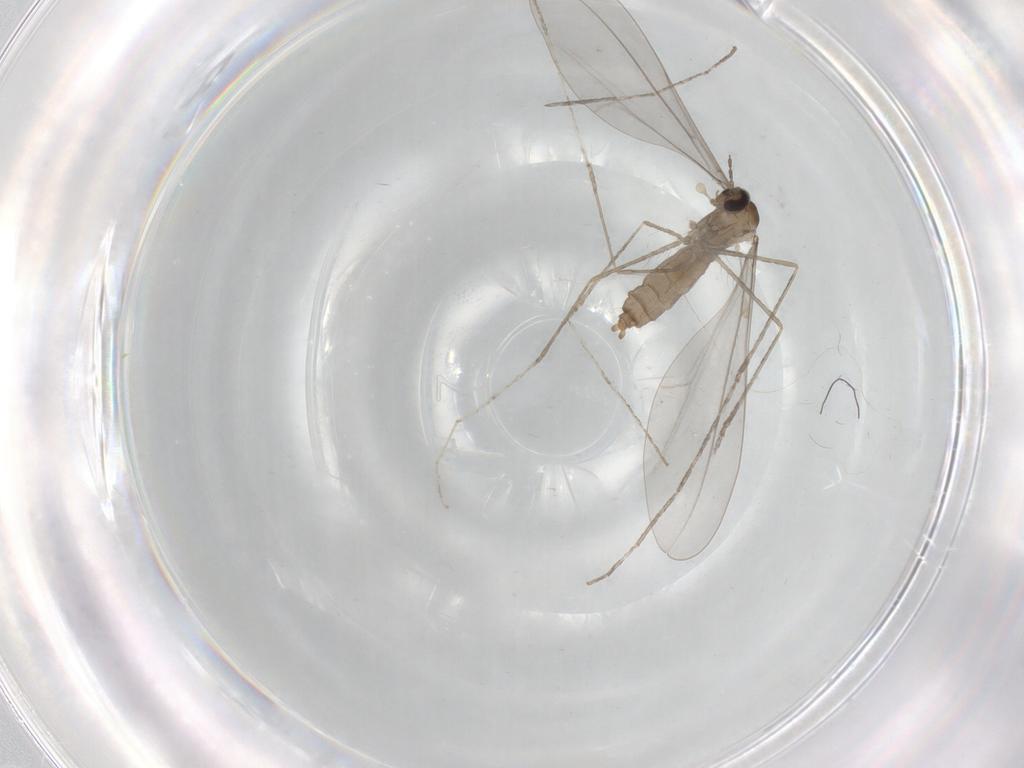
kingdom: Animalia
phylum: Arthropoda
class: Insecta
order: Diptera
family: Cecidomyiidae
